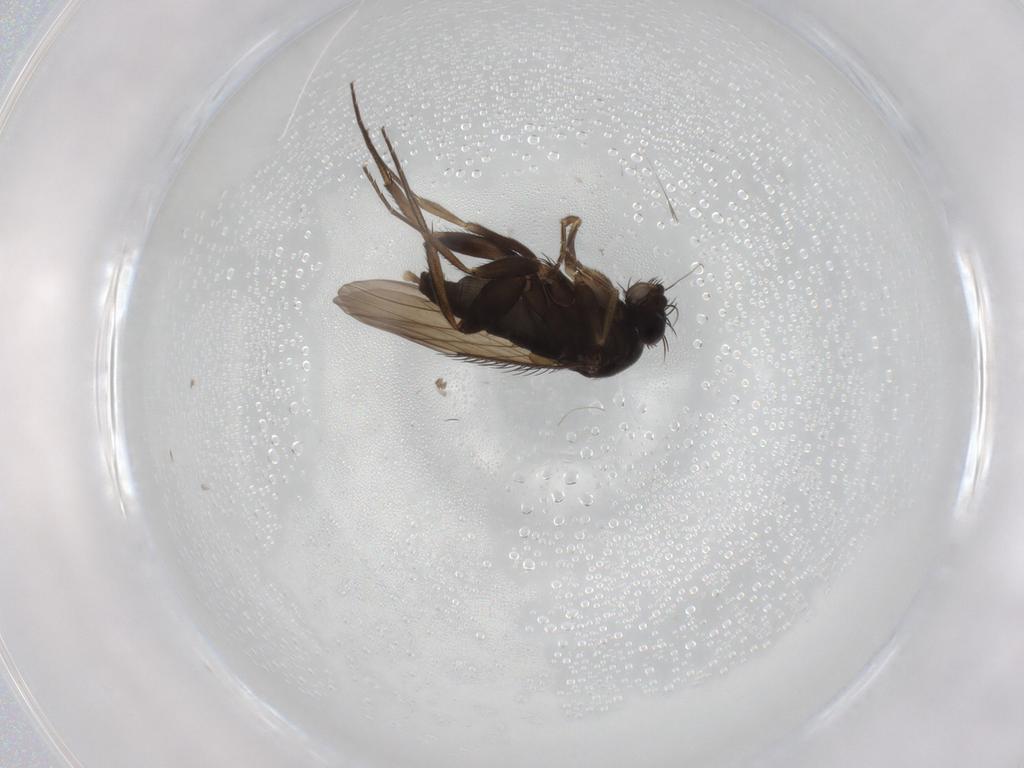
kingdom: Animalia
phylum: Arthropoda
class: Insecta
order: Diptera
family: Phoridae
